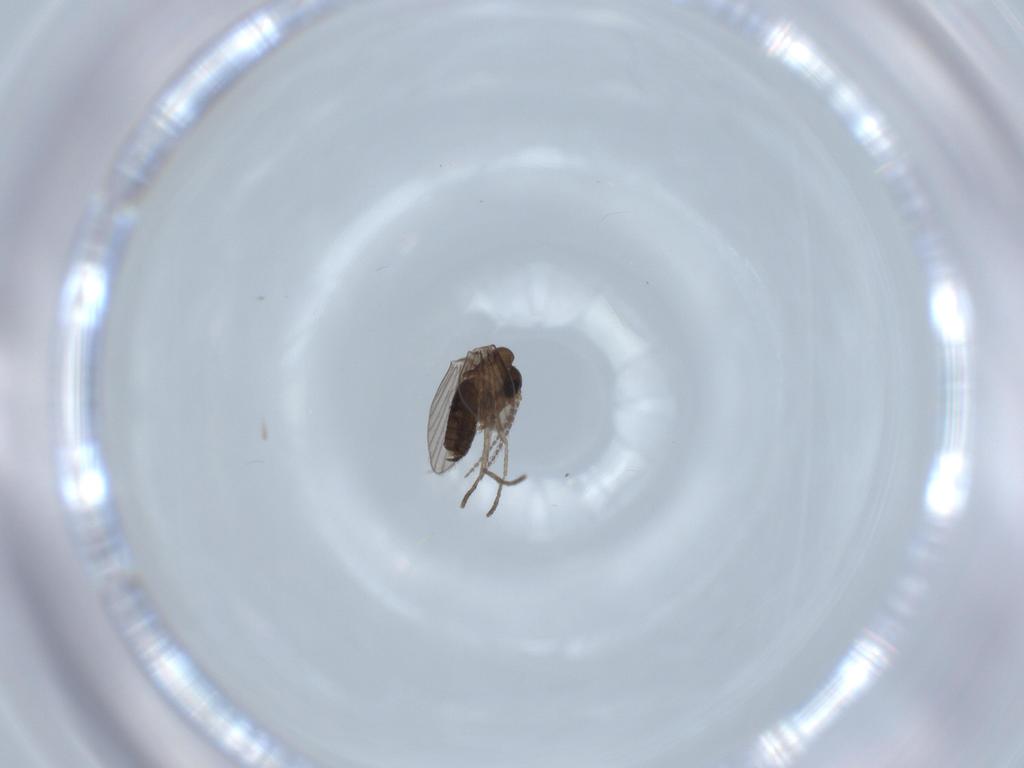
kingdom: Animalia
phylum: Arthropoda
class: Insecta
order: Diptera
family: Psychodidae
